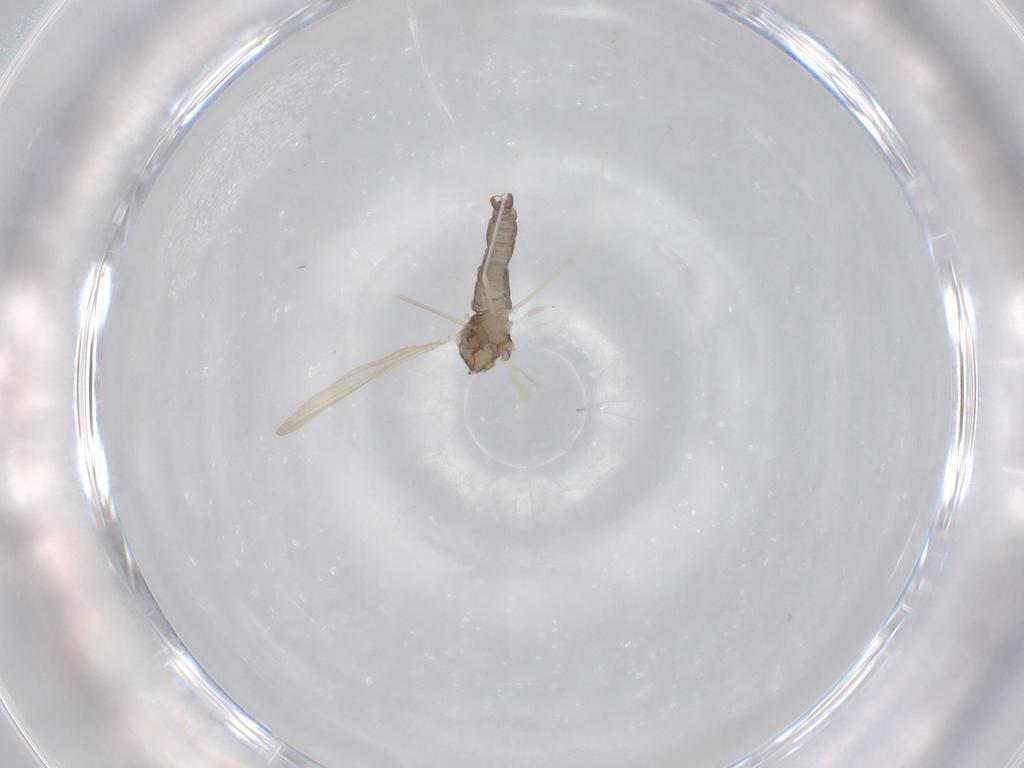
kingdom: Animalia
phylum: Arthropoda
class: Insecta
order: Diptera
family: Cecidomyiidae
